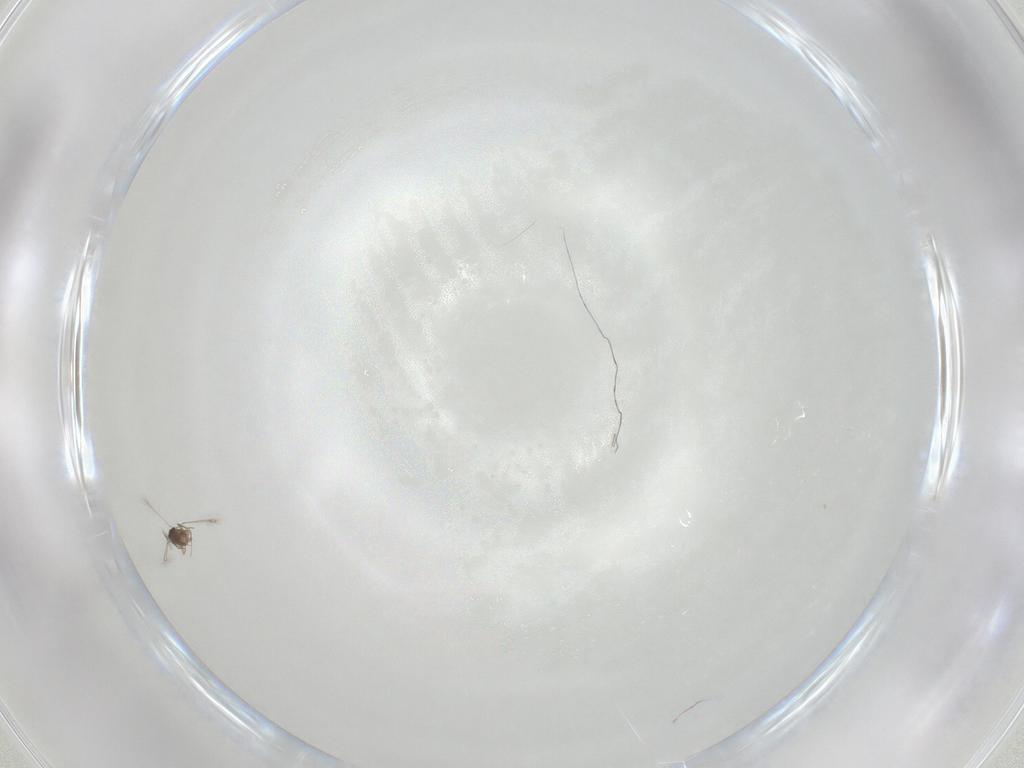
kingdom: Animalia
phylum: Arthropoda
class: Insecta
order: Hymenoptera
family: Mymaridae
